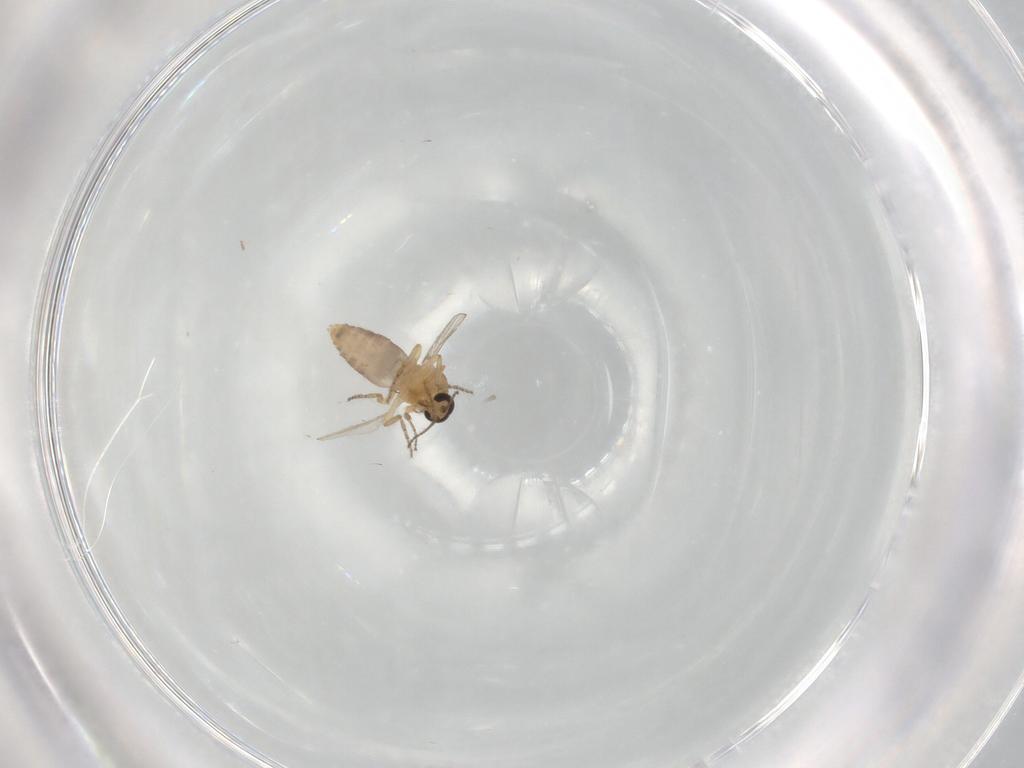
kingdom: Animalia
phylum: Arthropoda
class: Insecta
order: Diptera
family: Ceratopogonidae
